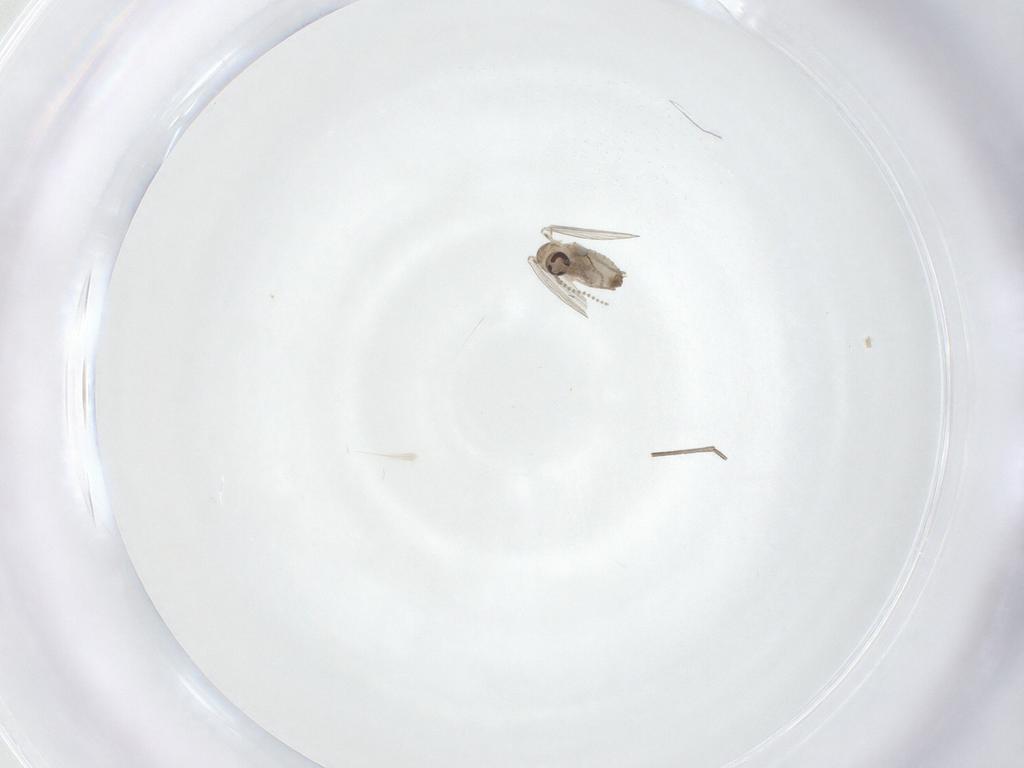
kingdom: Animalia
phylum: Arthropoda
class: Insecta
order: Diptera
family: Psychodidae
